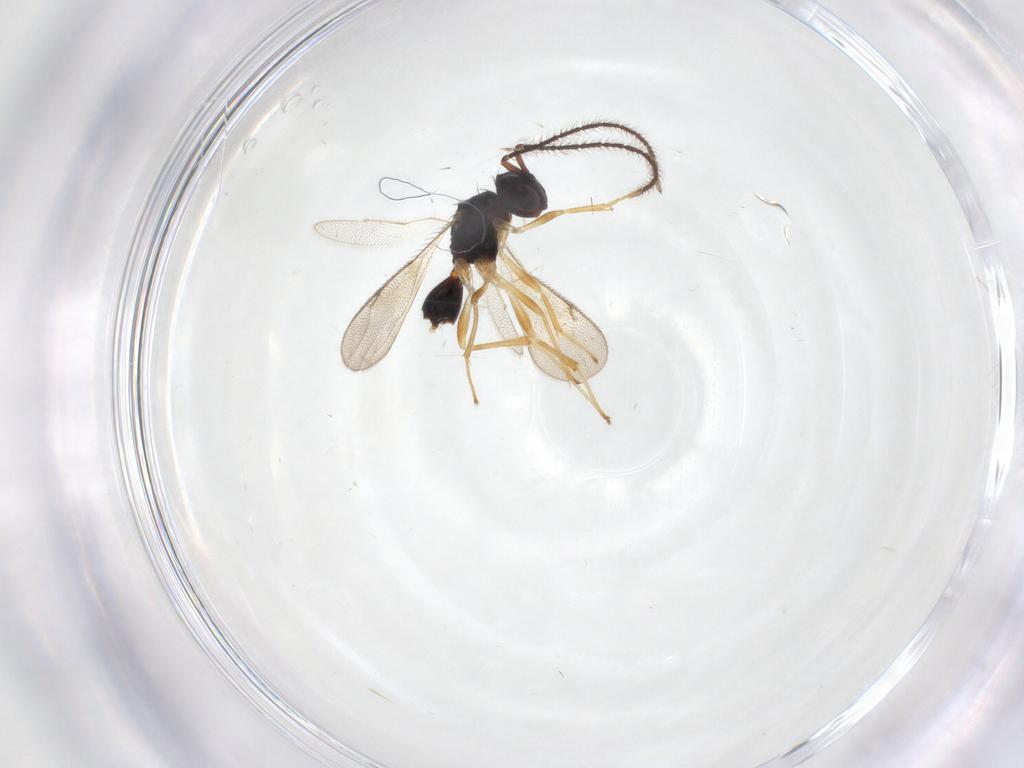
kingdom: Animalia
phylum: Arthropoda
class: Insecta
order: Hymenoptera
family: Diparidae
